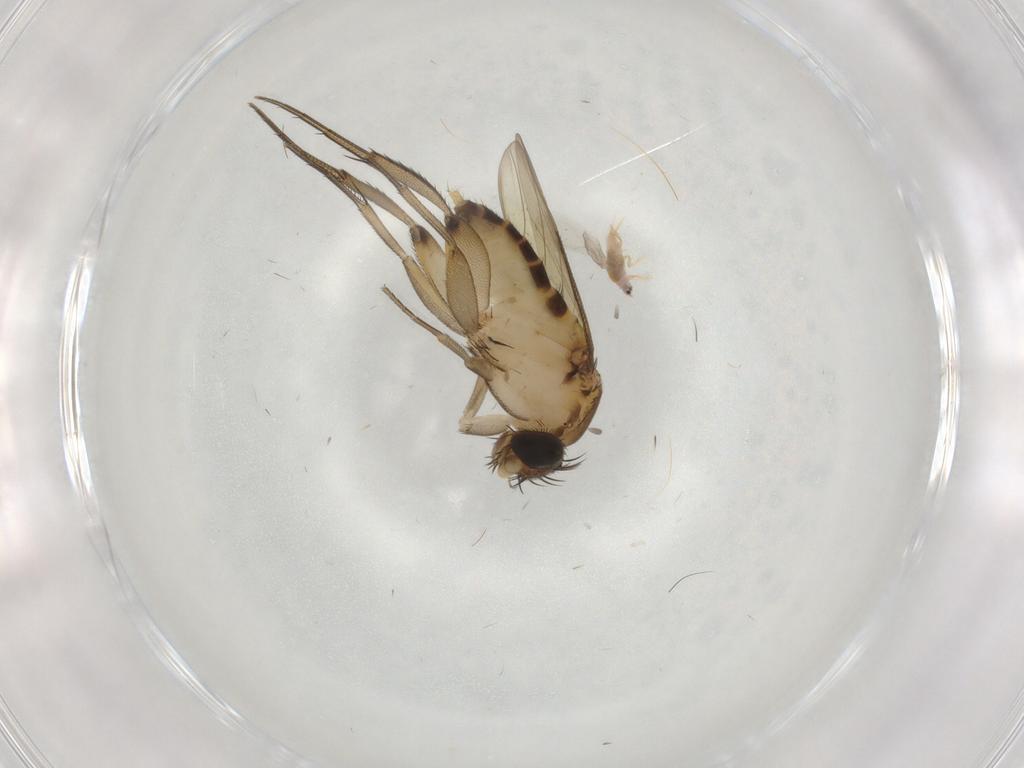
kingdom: Animalia
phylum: Arthropoda
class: Insecta
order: Diptera
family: Phoridae
